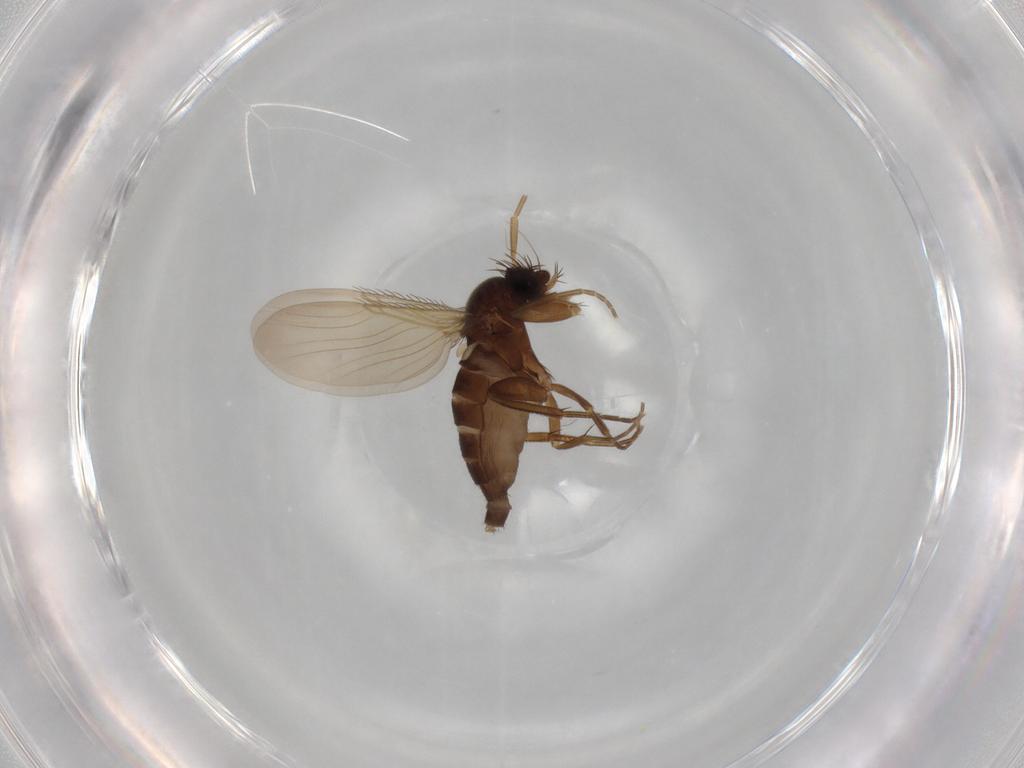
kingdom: Animalia
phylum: Arthropoda
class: Insecta
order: Diptera
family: Phoridae
